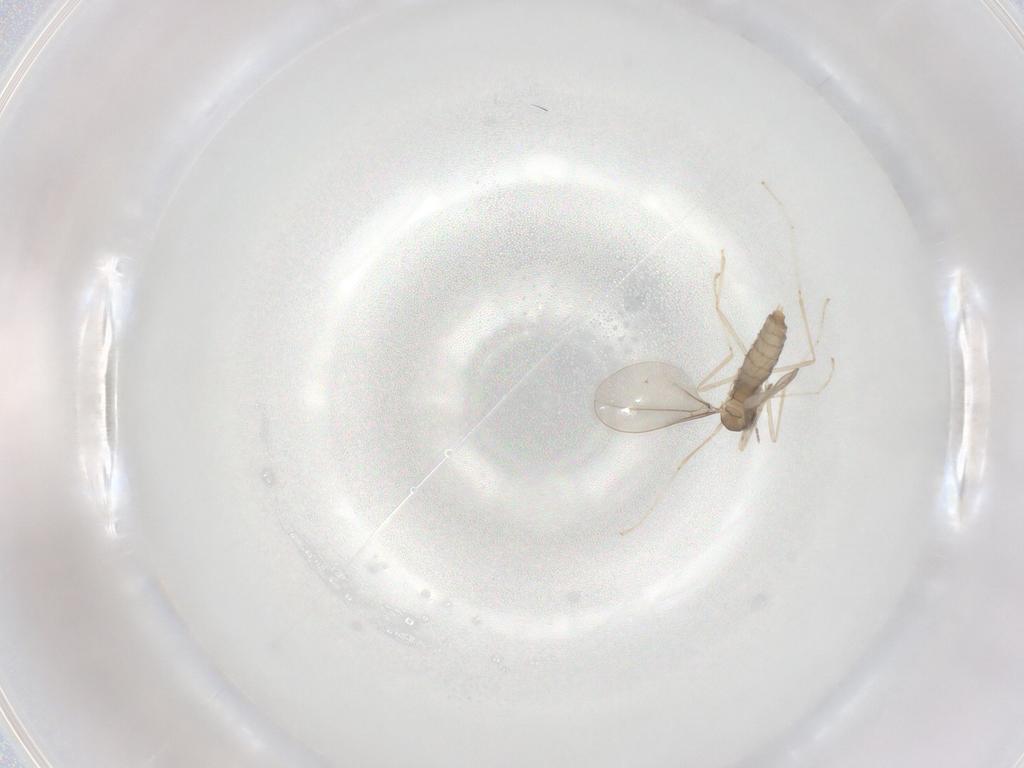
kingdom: Animalia
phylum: Arthropoda
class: Insecta
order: Diptera
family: Cecidomyiidae
